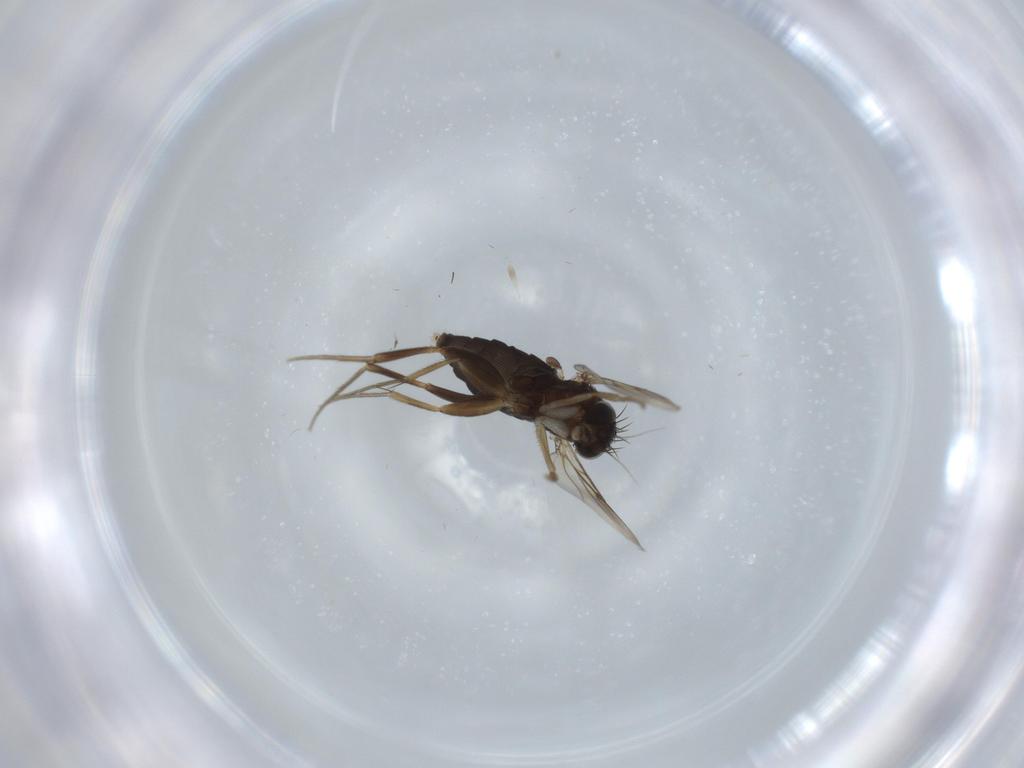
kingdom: Animalia
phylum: Arthropoda
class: Insecta
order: Diptera
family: Phoridae
